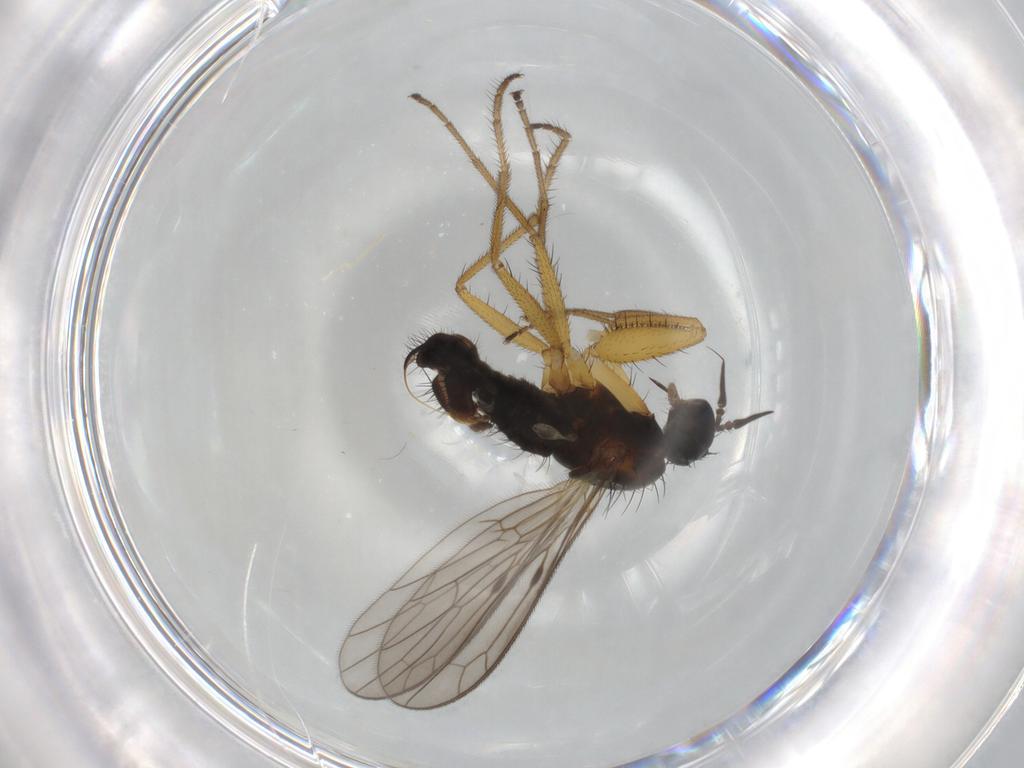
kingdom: Animalia
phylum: Arthropoda
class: Insecta
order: Diptera
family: Empididae
